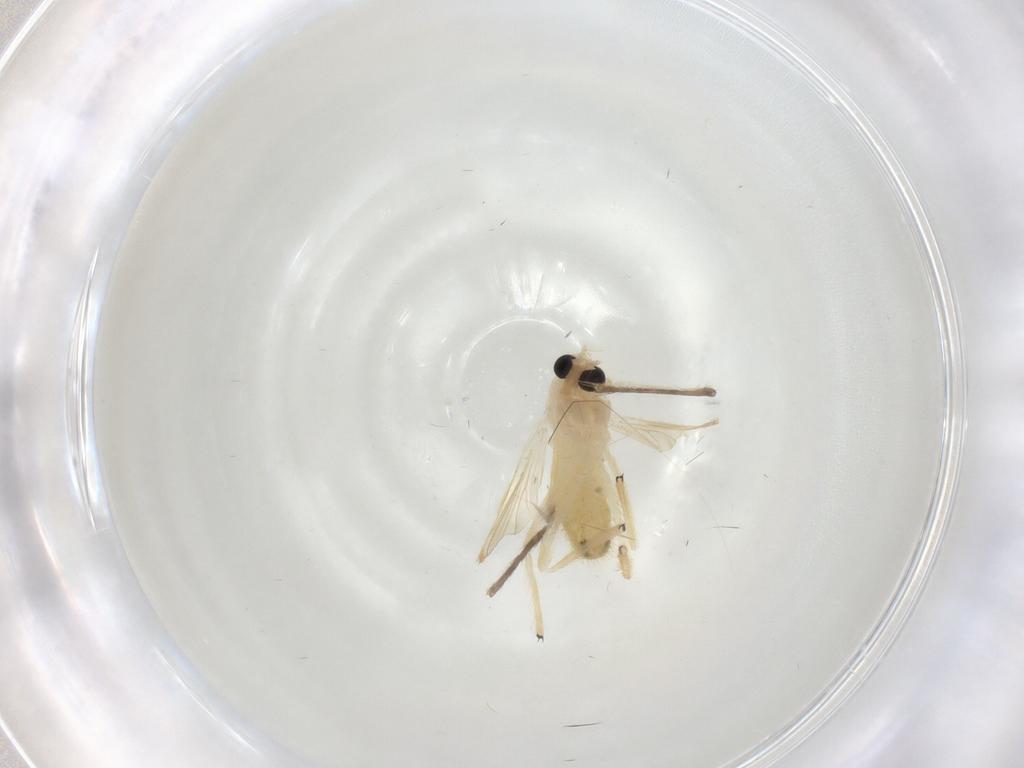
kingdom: Animalia
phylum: Arthropoda
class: Insecta
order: Diptera
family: Chironomidae
